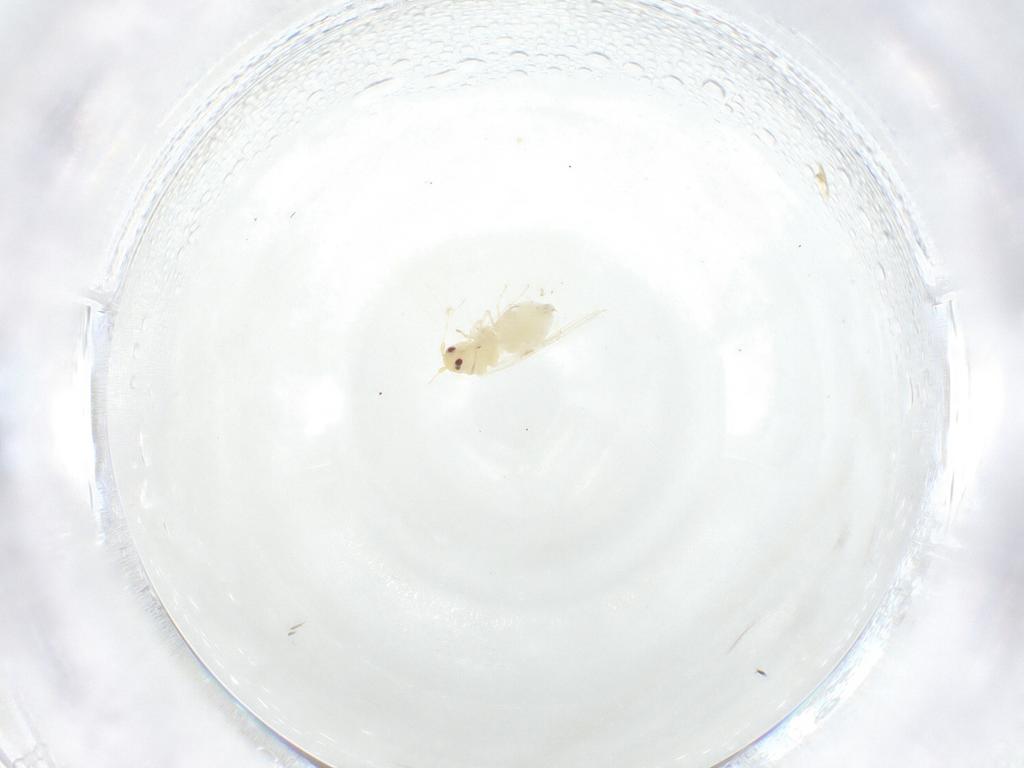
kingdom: Animalia
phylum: Arthropoda
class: Insecta
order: Hemiptera
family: Aleyrodidae
